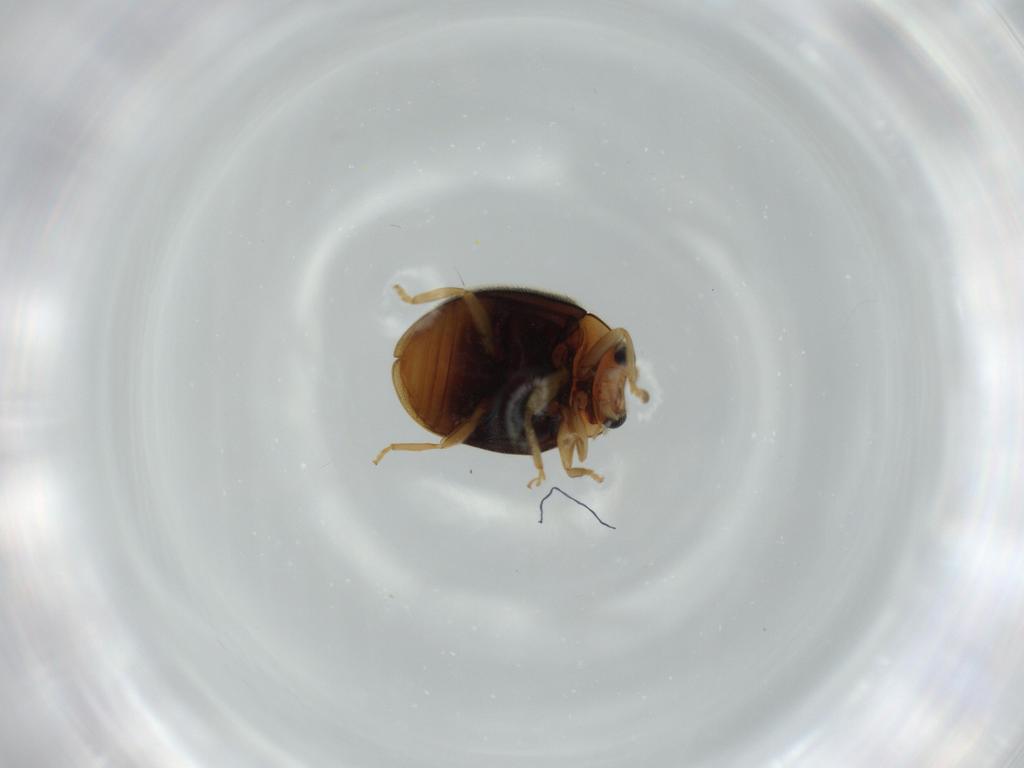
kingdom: Animalia
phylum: Arthropoda
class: Insecta
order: Coleoptera
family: Chrysomelidae
